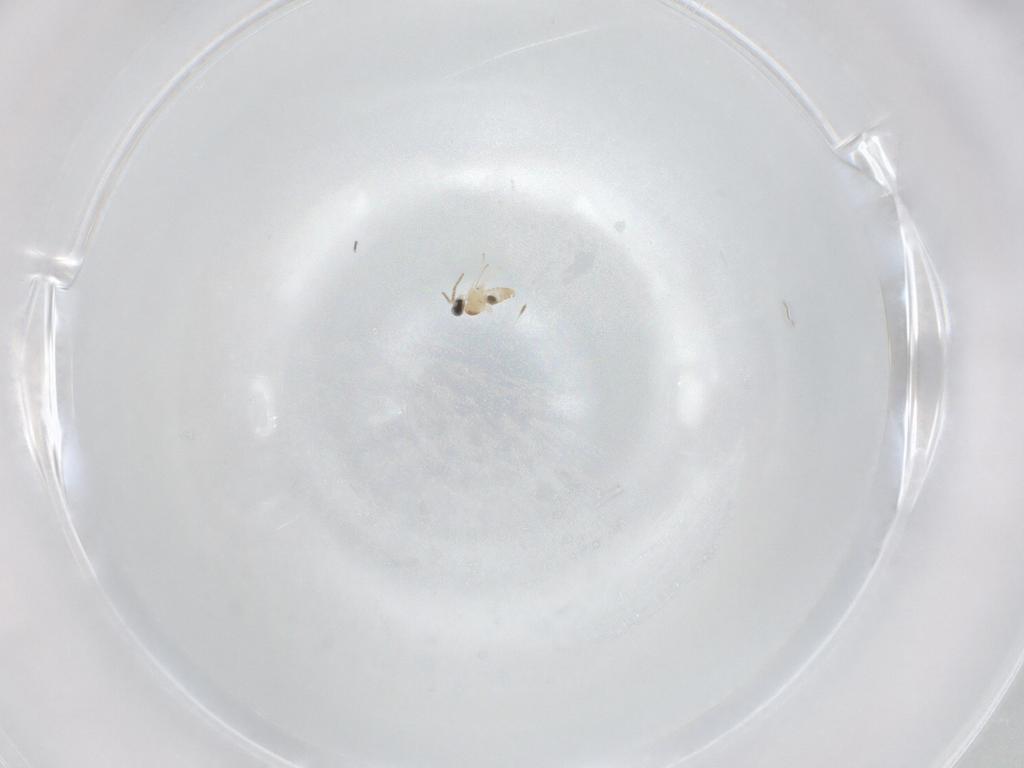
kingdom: Animalia
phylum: Arthropoda
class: Insecta
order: Diptera
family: Cecidomyiidae
